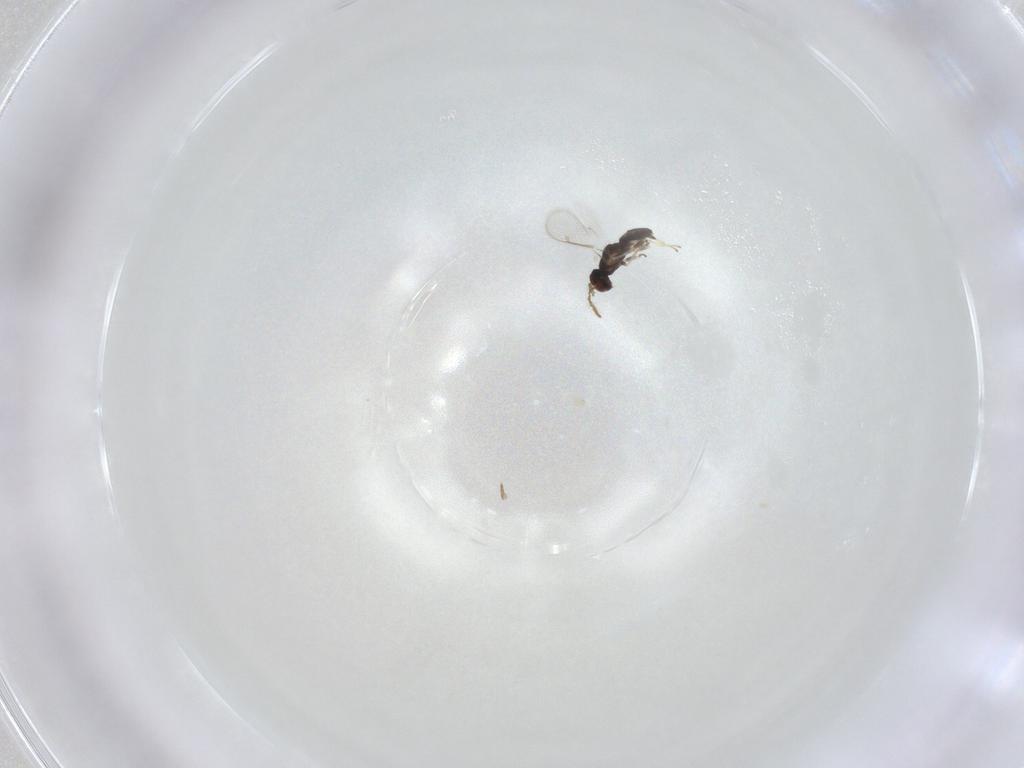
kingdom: Animalia
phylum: Arthropoda
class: Insecta
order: Hymenoptera
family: Eulophidae
